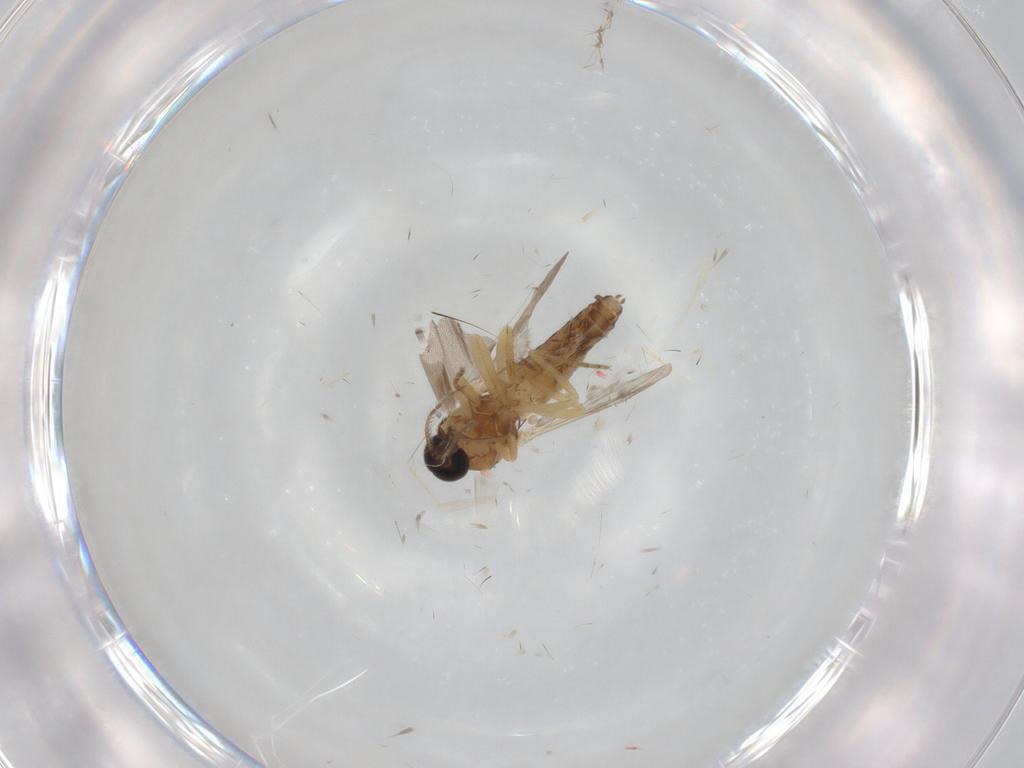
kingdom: Animalia
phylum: Arthropoda
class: Insecta
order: Diptera
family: Ceratopogonidae
